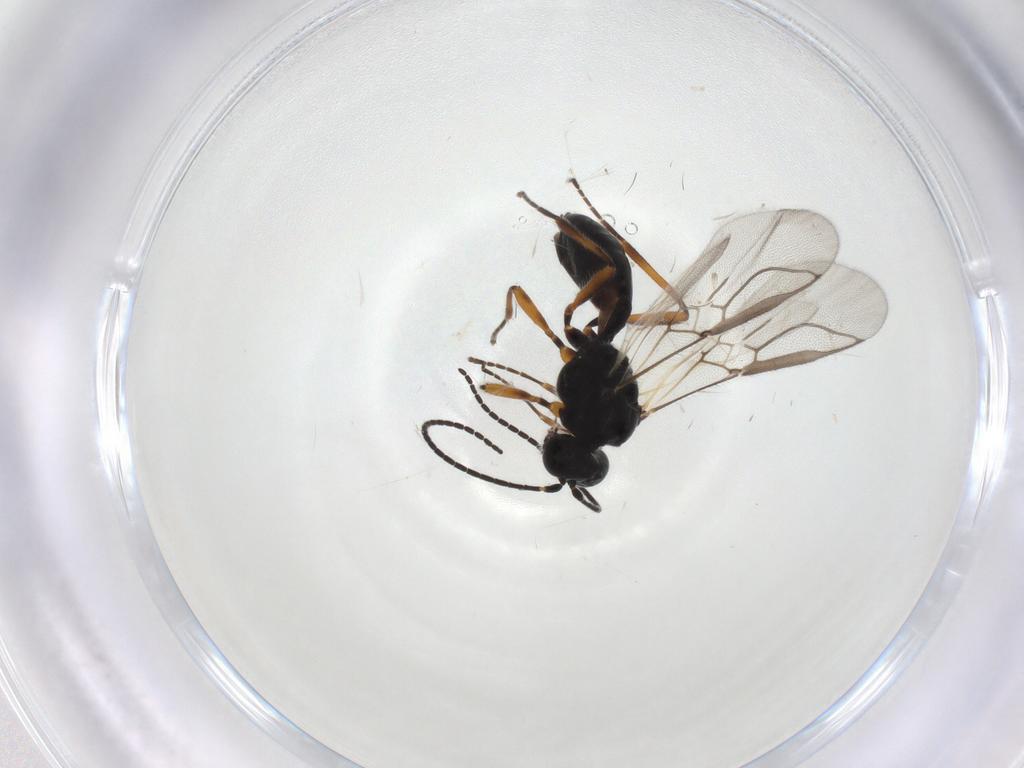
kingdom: Animalia
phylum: Arthropoda
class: Insecta
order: Hymenoptera
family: Braconidae
